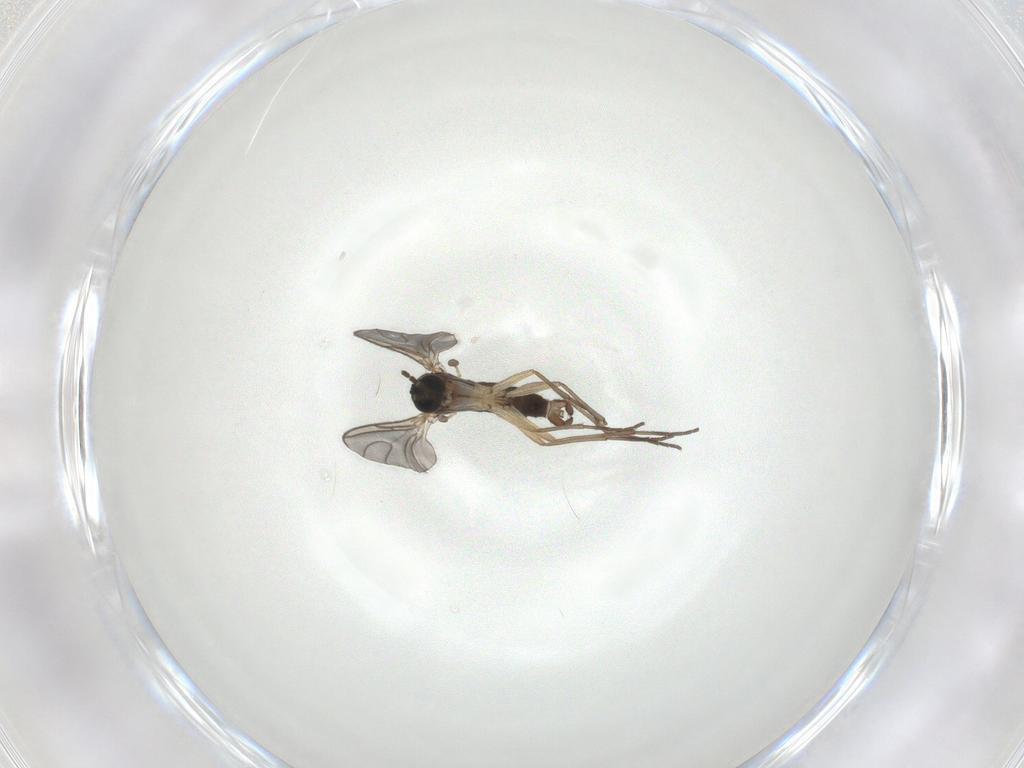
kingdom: Animalia
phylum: Arthropoda
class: Insecta
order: Diptera
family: Sciaridae
